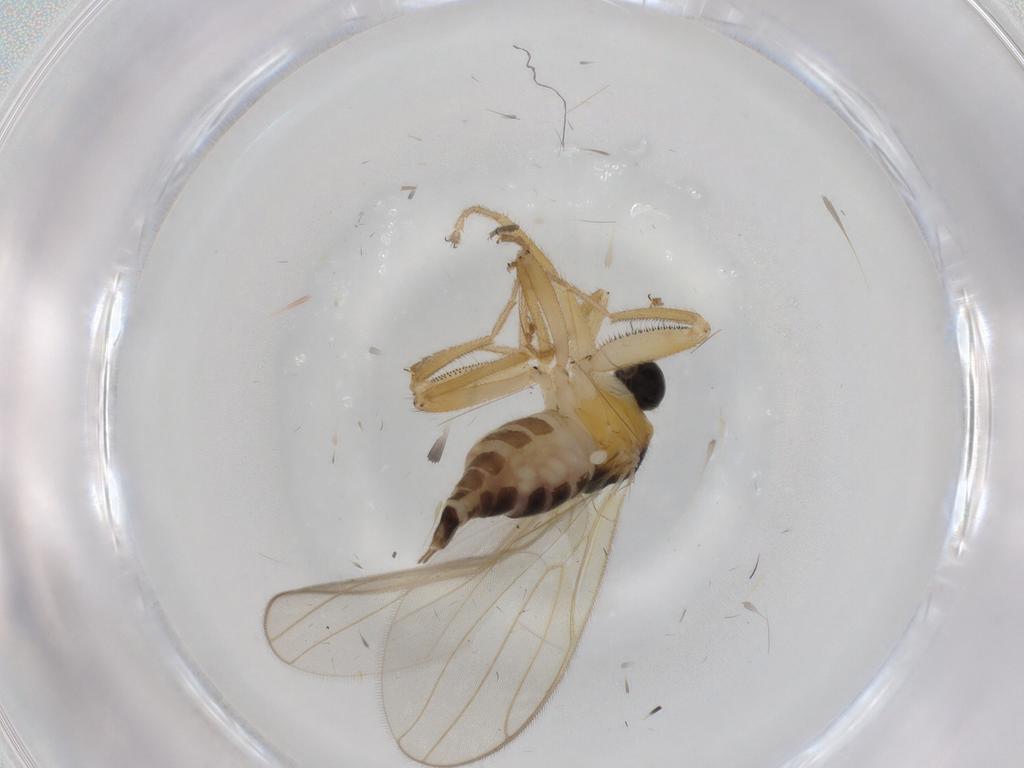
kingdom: Animalia
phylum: Arthropoda
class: Insecta
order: Diptera
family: Hybotidae
